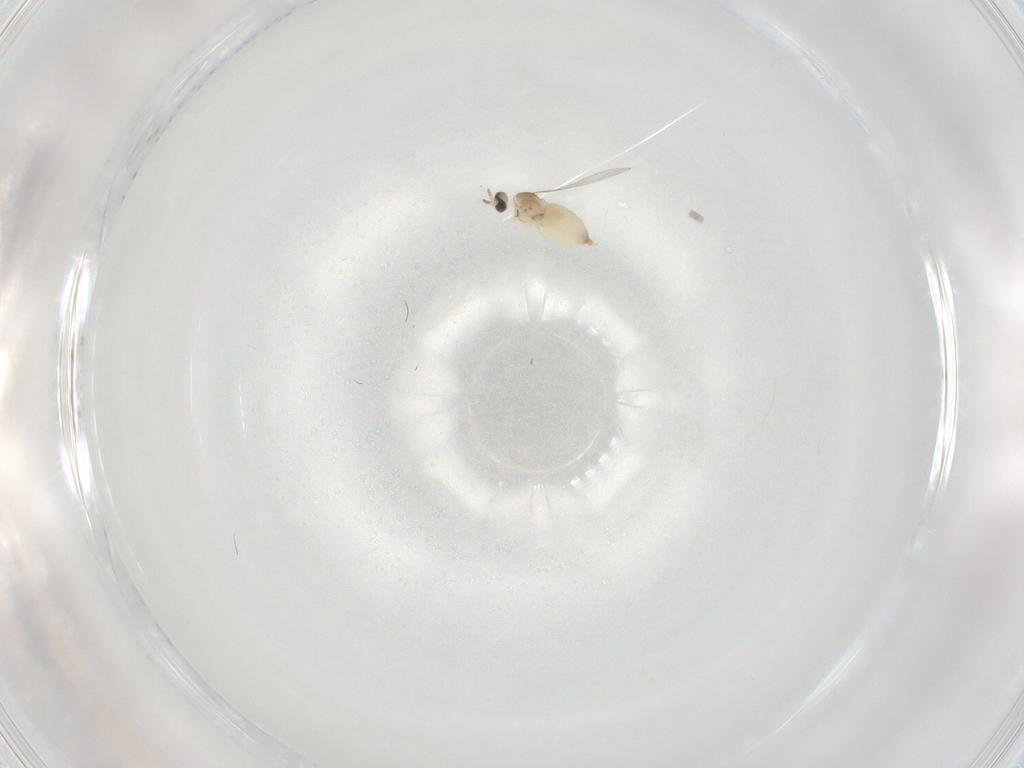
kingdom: Animalia
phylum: Arthropoda
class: Insecta
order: Diptera
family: Cecidomyiidae
